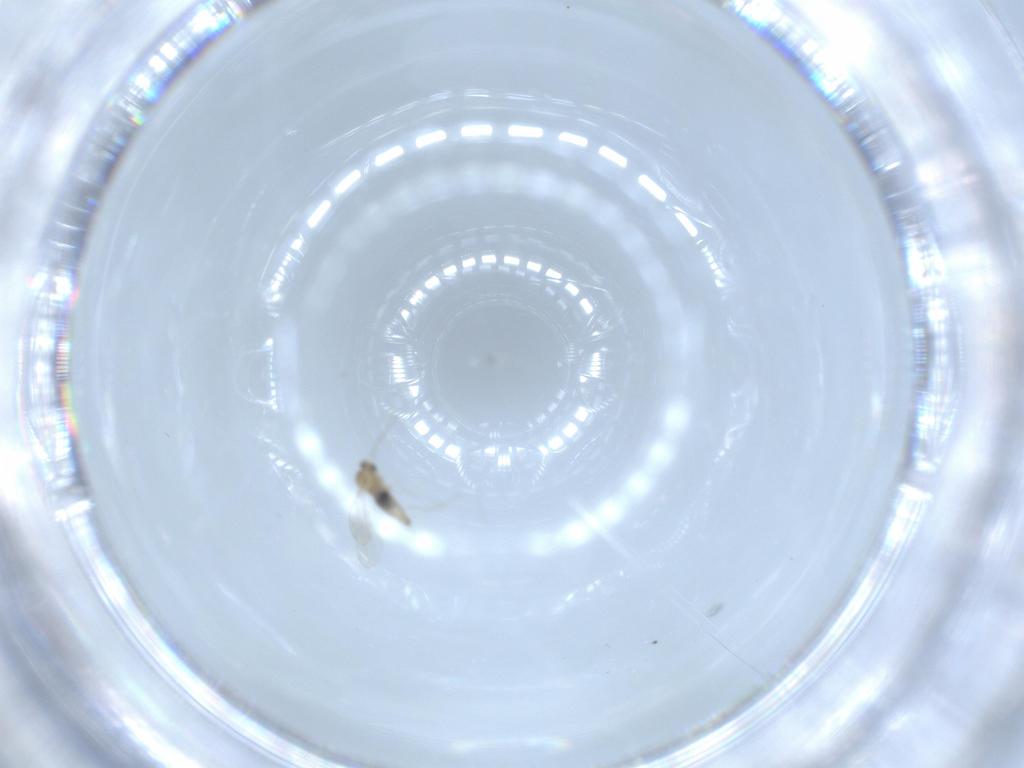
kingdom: Animalia
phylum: Arthropoda
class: Insecta
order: Diptera
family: Cecidomyiidae
